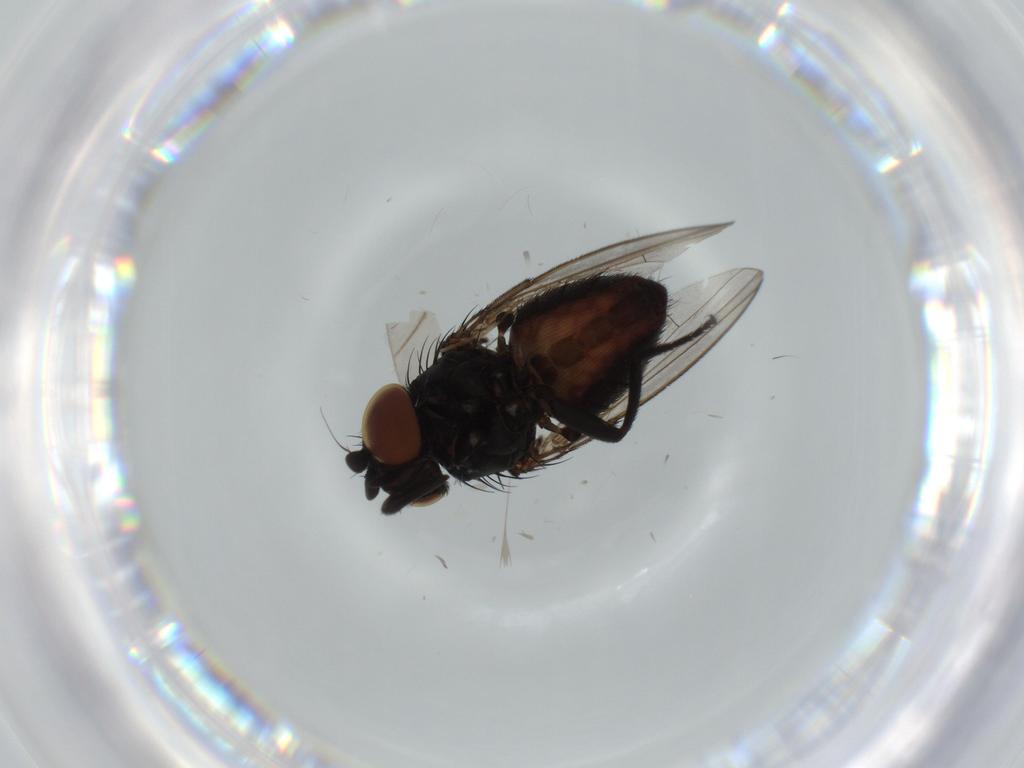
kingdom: Animalia
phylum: Arthropoda
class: Insecta
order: Diptera
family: Milichiidae
